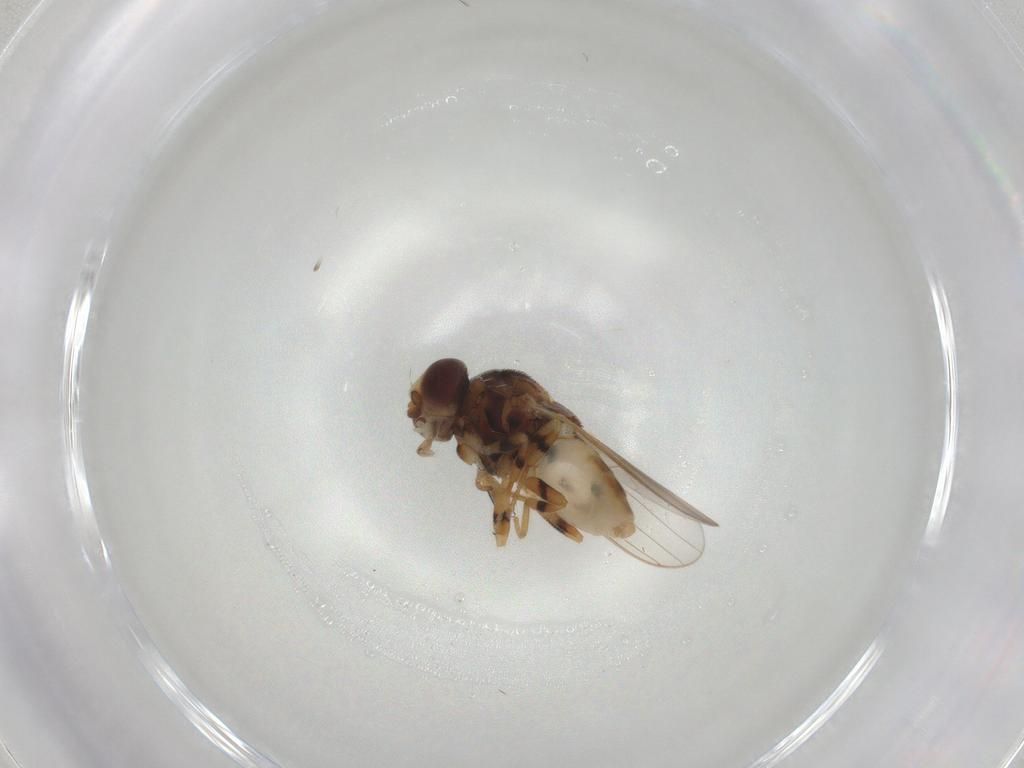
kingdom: Animalia
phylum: Arthropoda
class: Insecta
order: Diptera
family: Chloropidae
